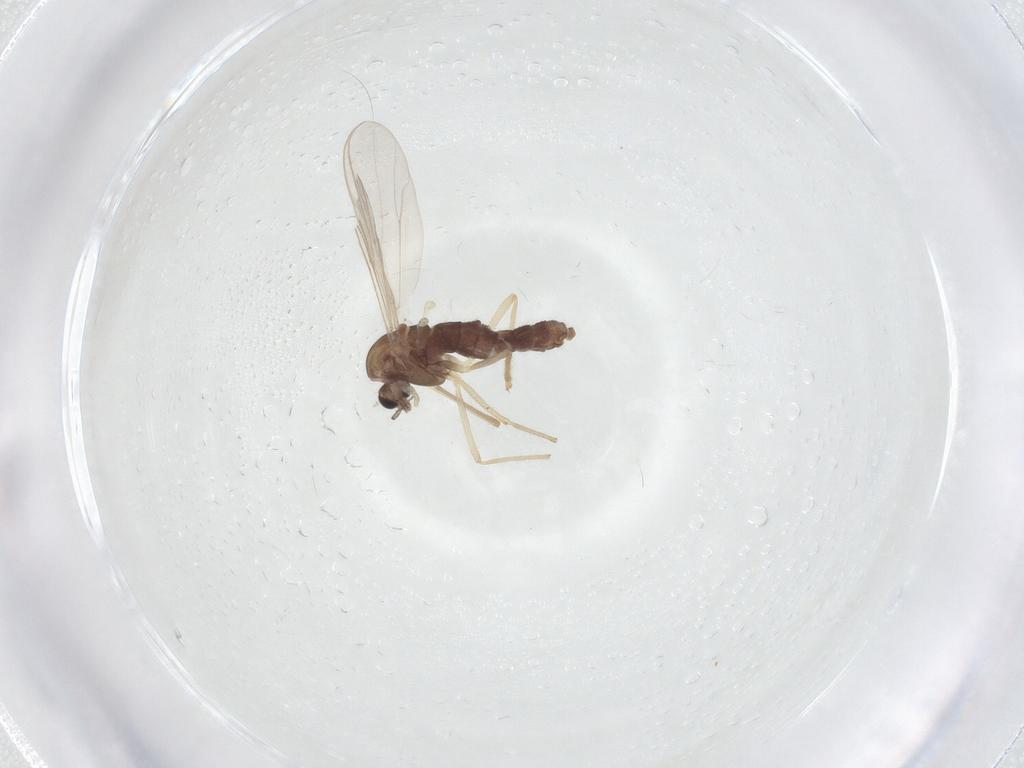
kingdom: Animalia
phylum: Arthropoda
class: Insecta
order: Diptera
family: Chironomidae
